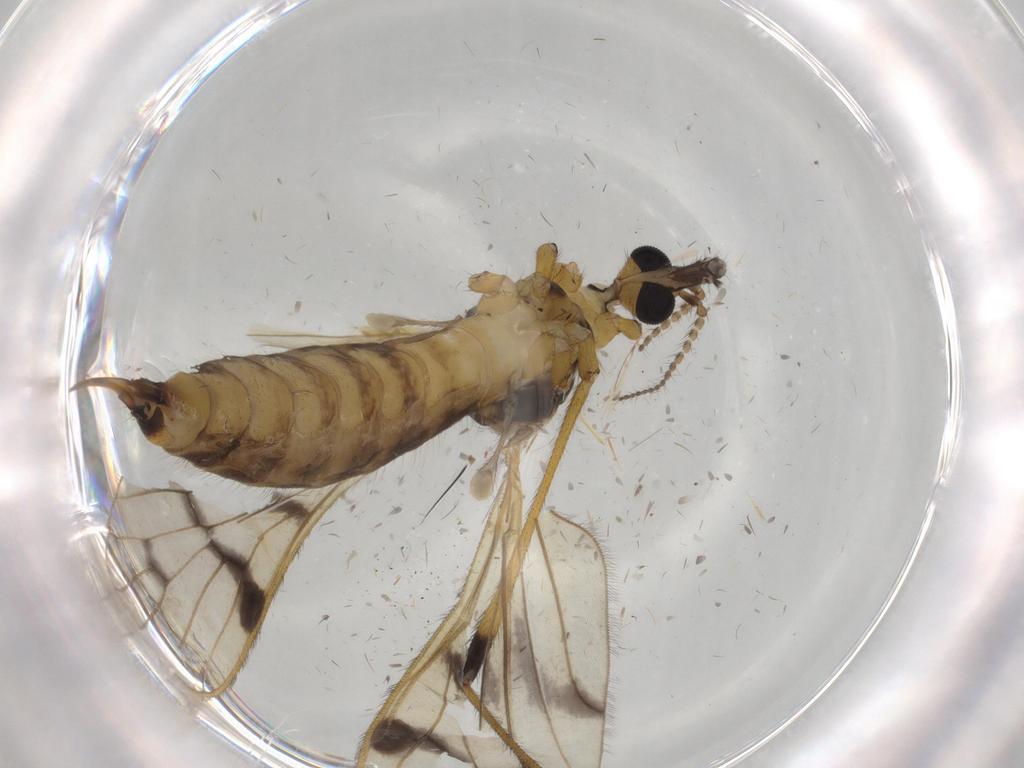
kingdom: Animalia
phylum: Arthropoda
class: Insecta
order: Diptera
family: Limoniidae
